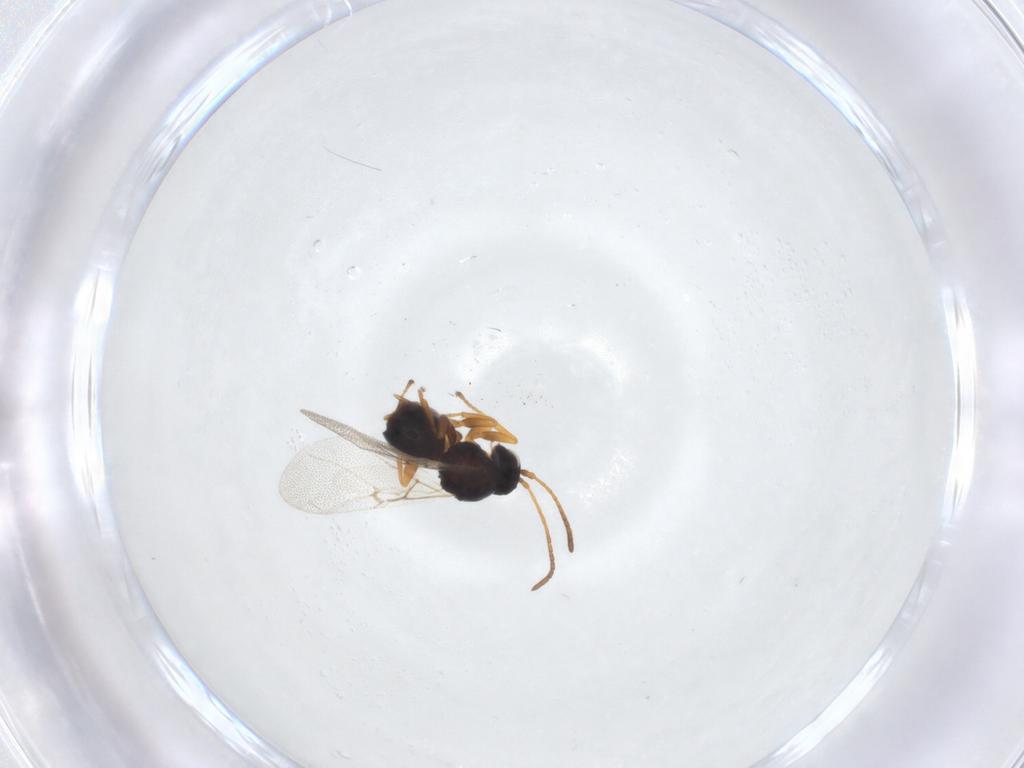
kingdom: Animalia
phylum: Arthropoda
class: Insecta
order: Hymenoptera
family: Cynipidae
